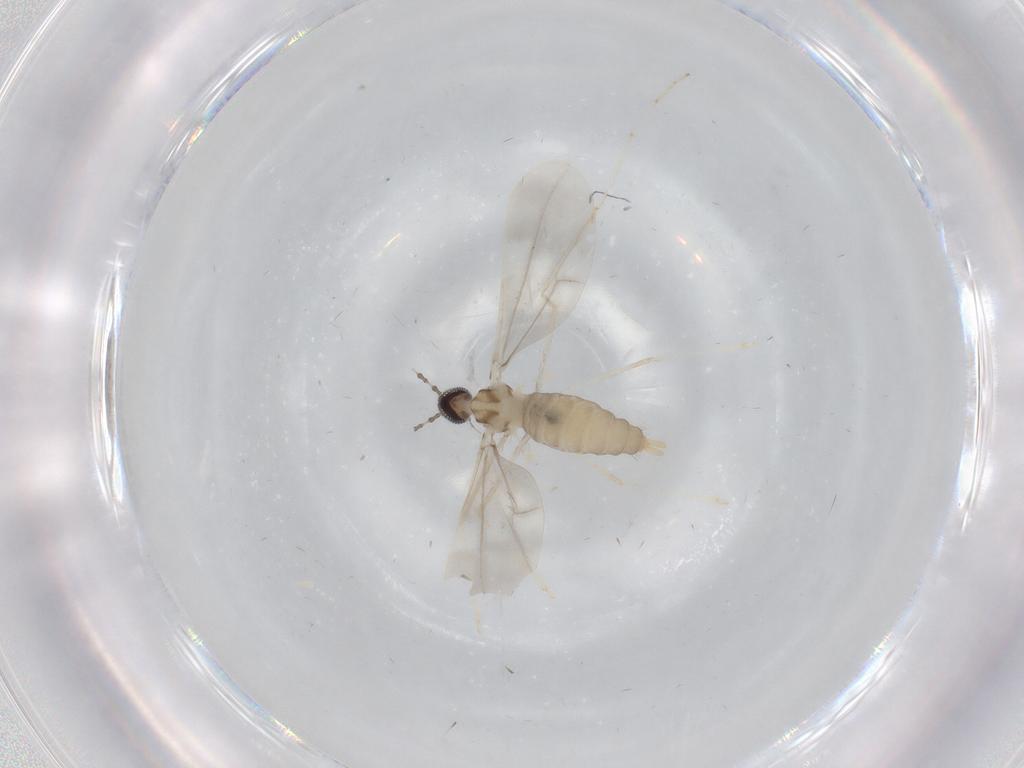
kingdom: Animalia
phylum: Arthropoda
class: Insecta
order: Diptera
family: Cecidomyiidae
